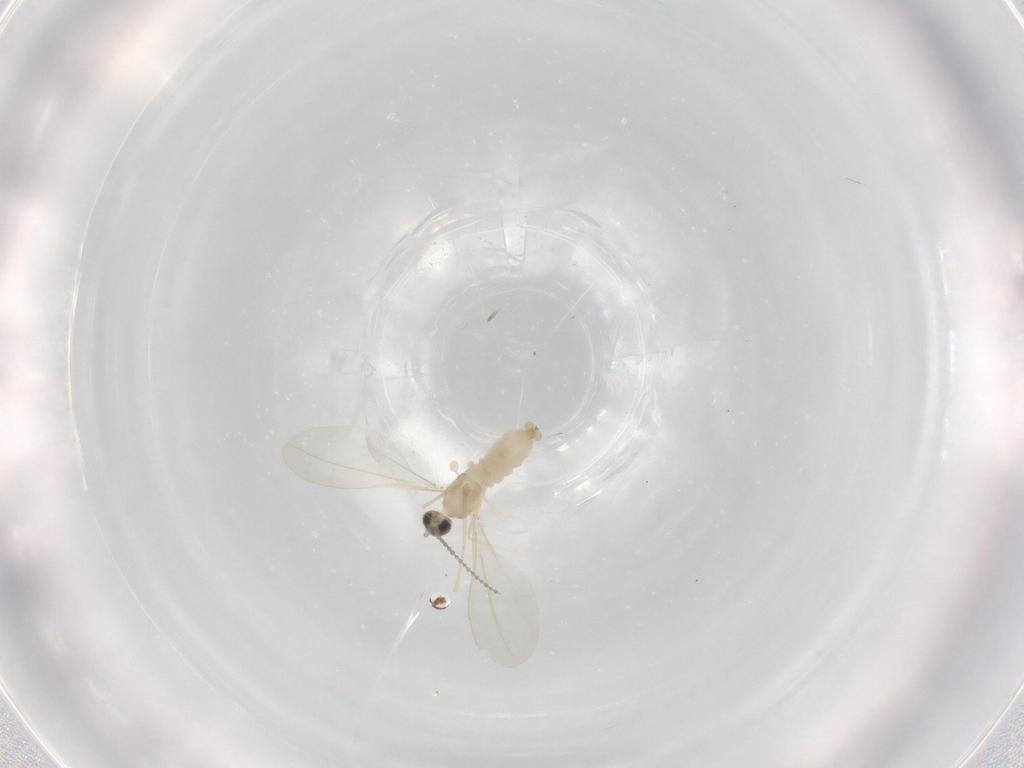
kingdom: Animalia
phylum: Arthropoda
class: Insecta
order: Diptera
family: Cecidomyiidae
